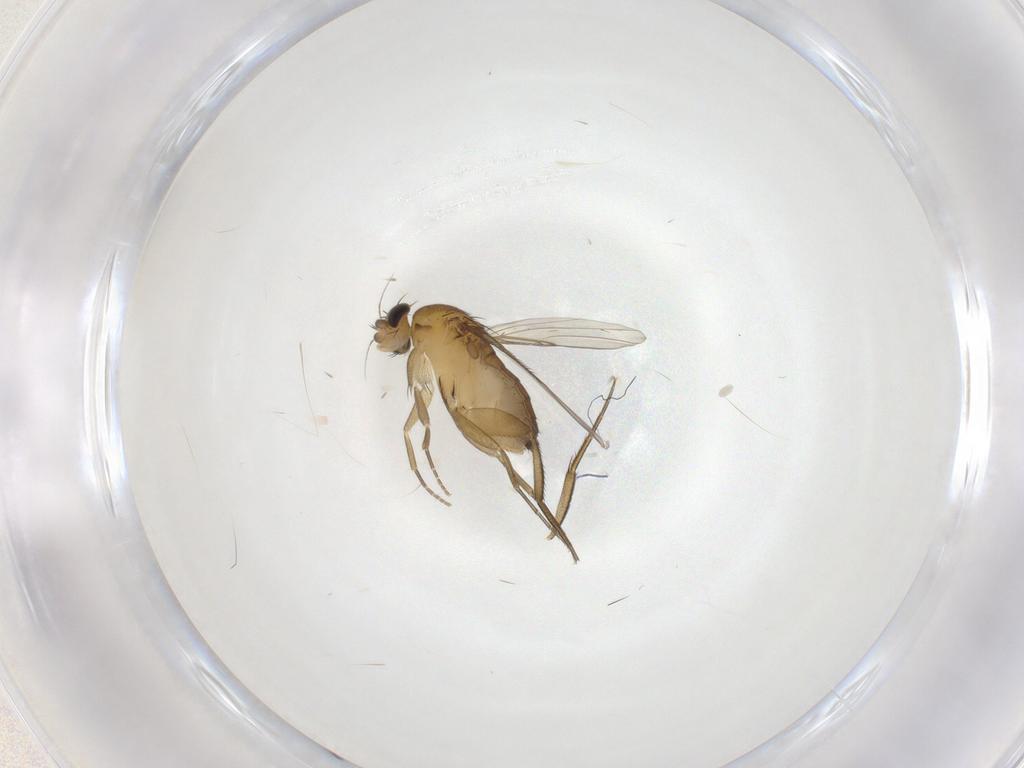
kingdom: Animalia
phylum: Arthropoda
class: Insecta
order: Diptera
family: Phoridae
